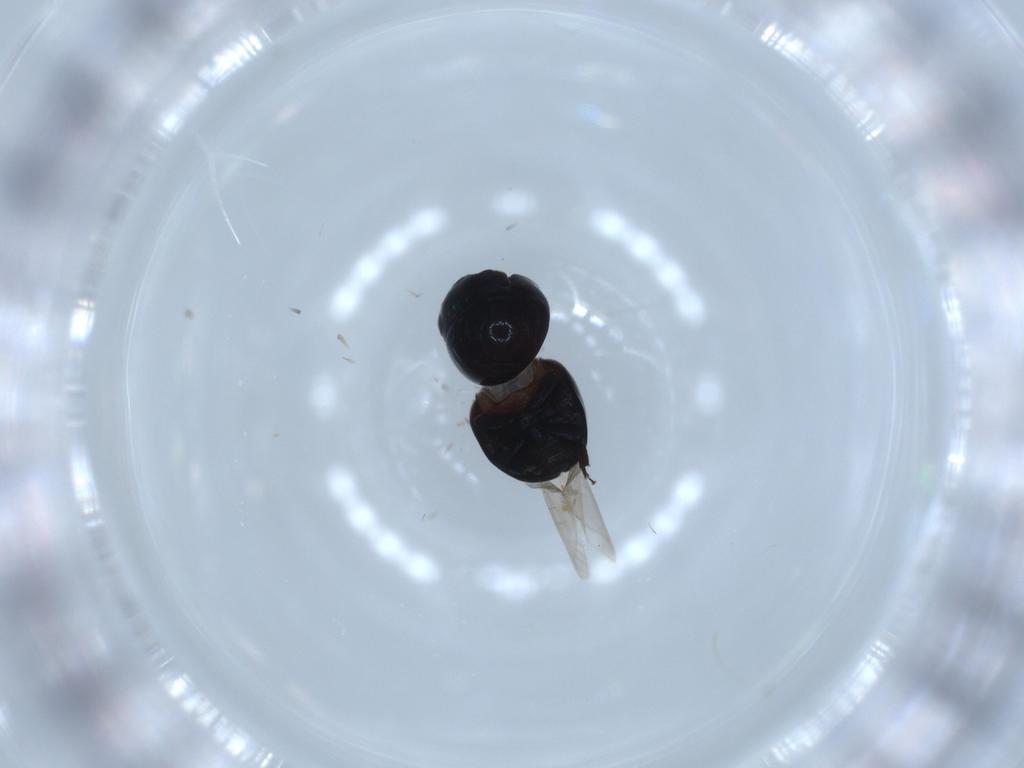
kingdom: Animalia
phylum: Arthropoda
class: Insecta
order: Coleoptera
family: Cybocephalidae
